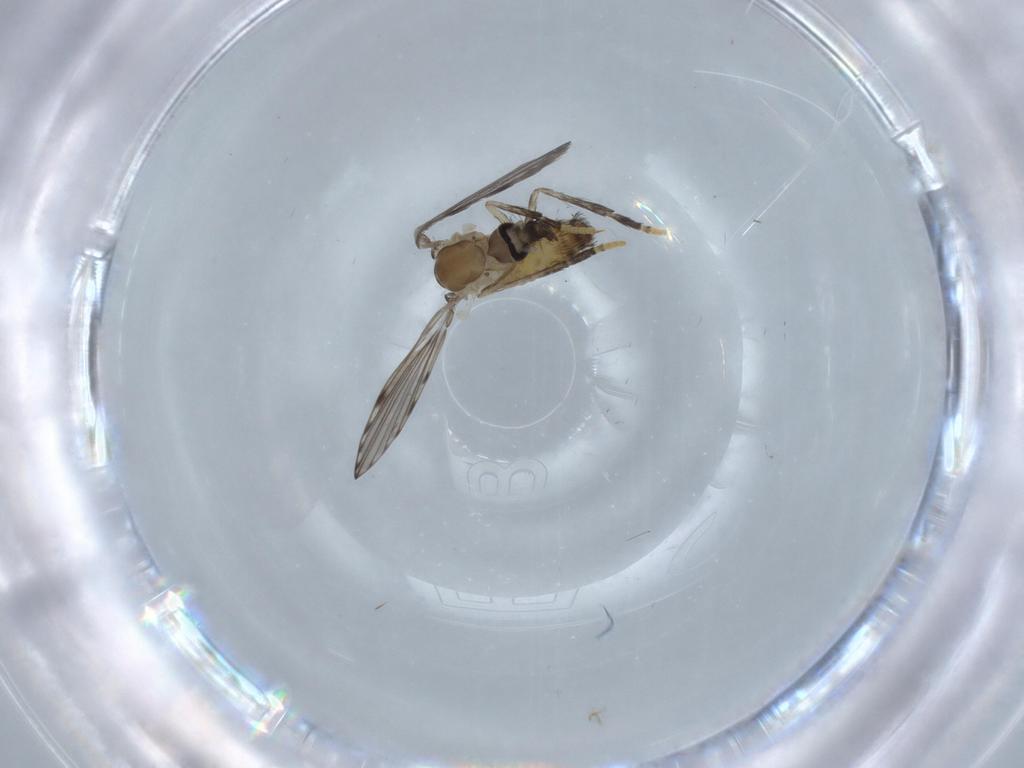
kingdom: Animalia
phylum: Arthropoda
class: Insecta
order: Diptera
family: Psychodidae
